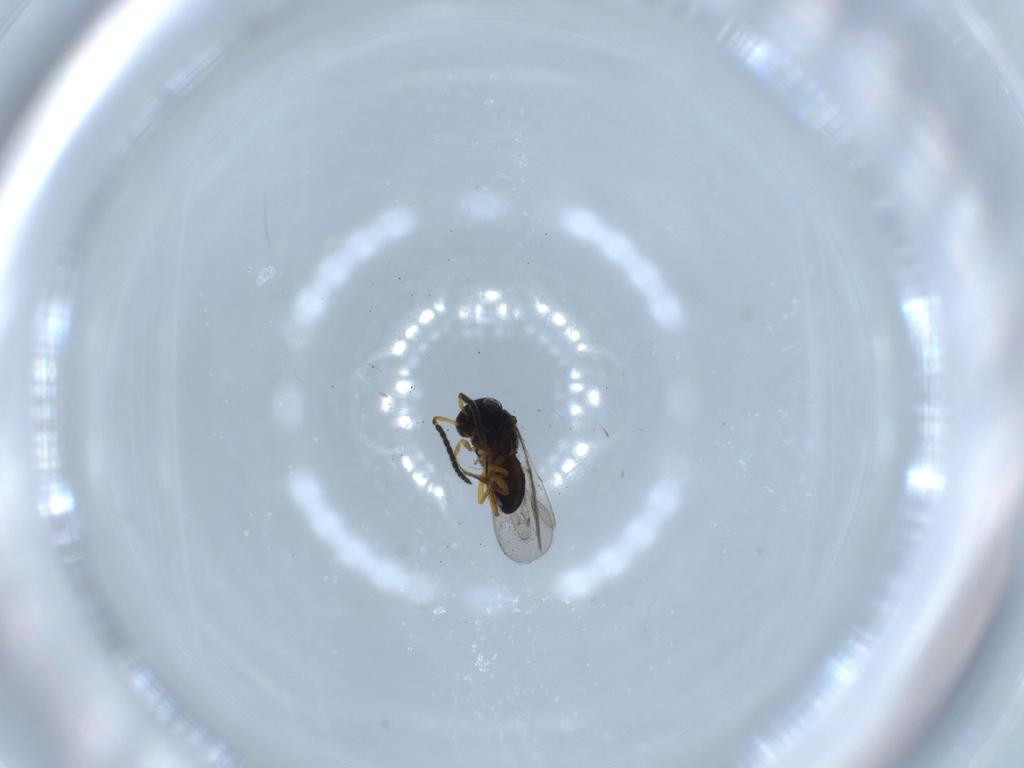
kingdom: Animalia
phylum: Arthropoda
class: Insecta
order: Coleoptera
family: Curculionidae
